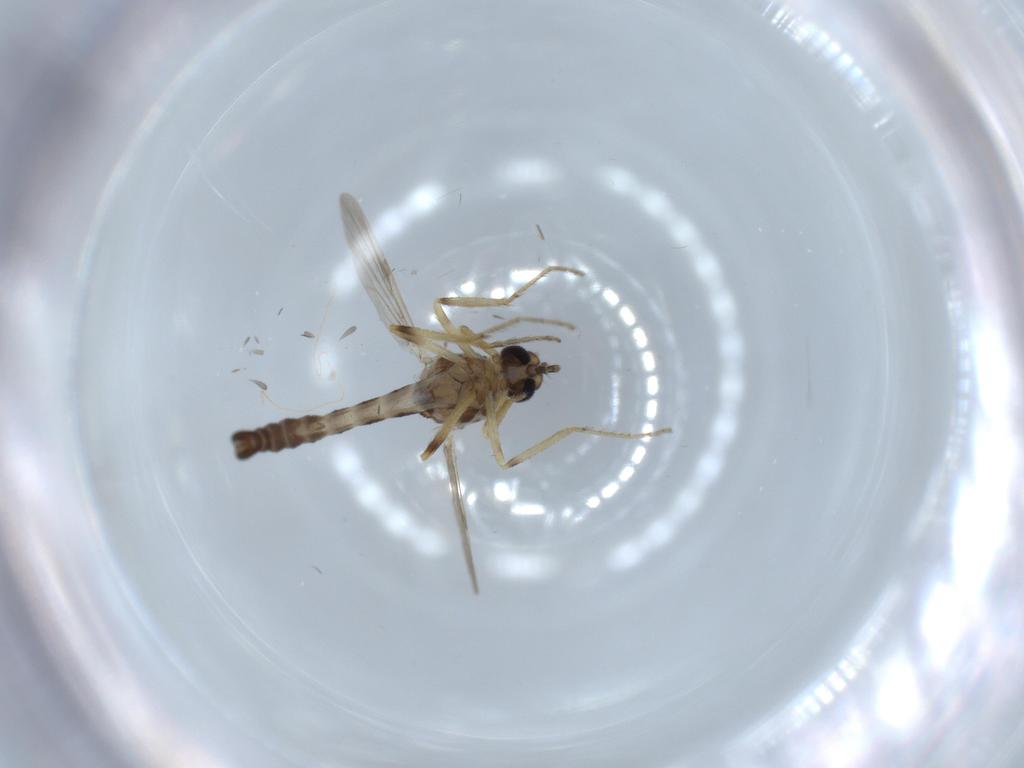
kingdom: Animalia
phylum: Arthropoda
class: Insecta
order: Diptera
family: Ceratopogonidae
